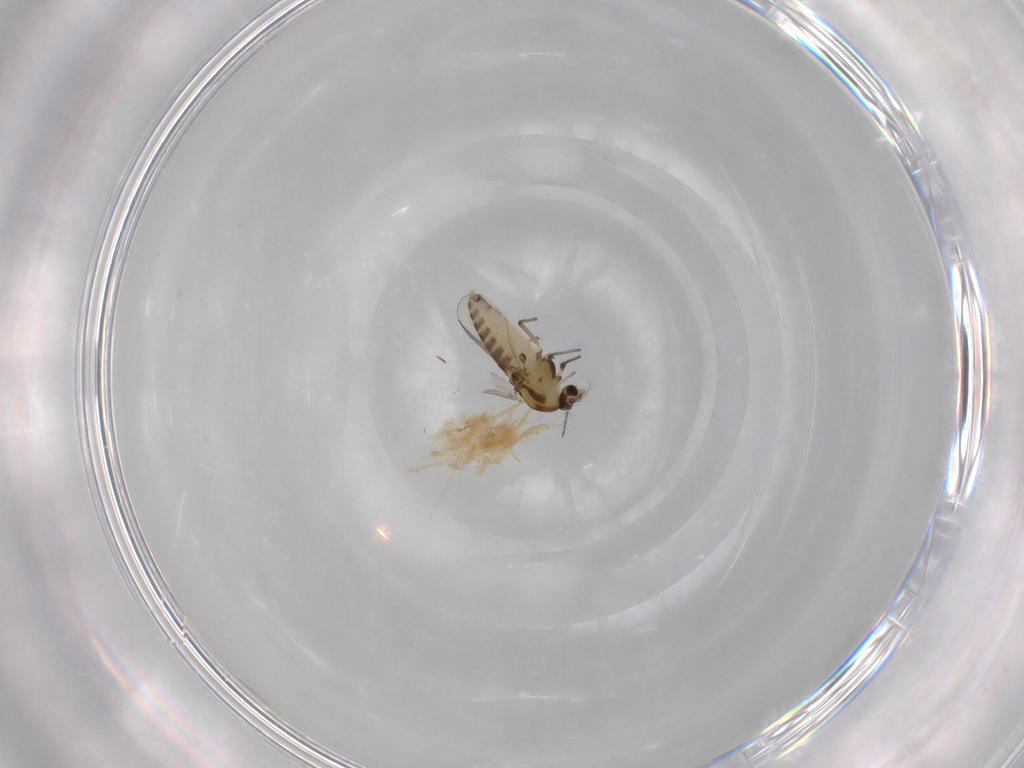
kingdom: Animalia
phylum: Arthropoda
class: Insecta
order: Diptera
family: Chironomidae
